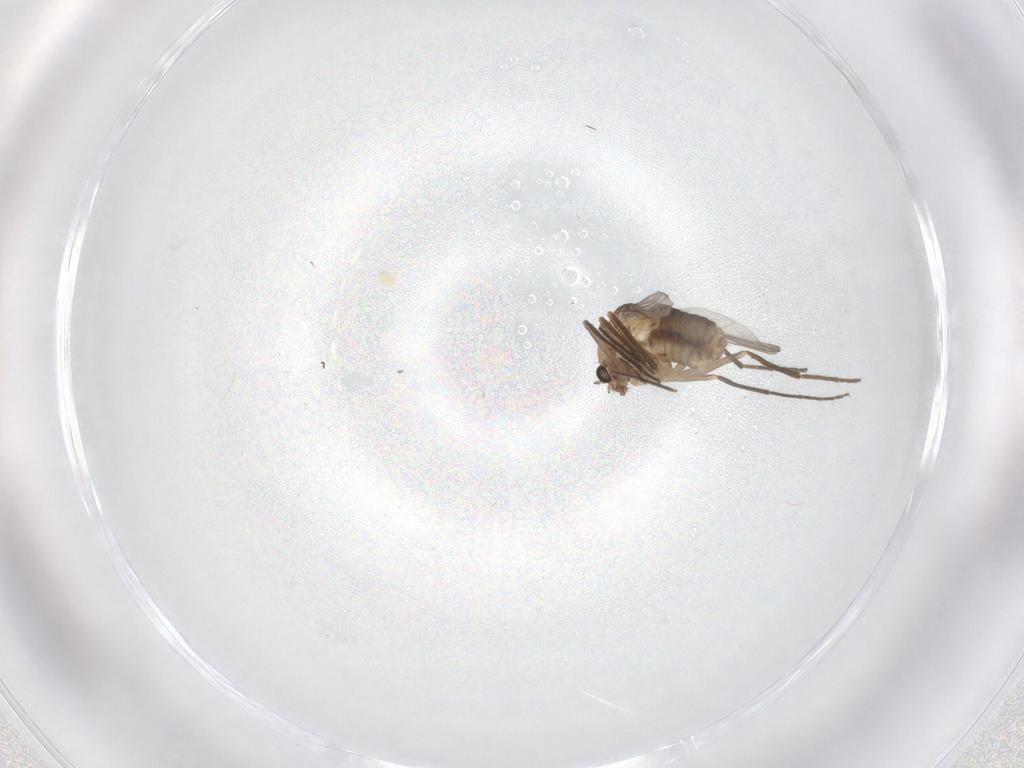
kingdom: Animalia
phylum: Arthropoda
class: Insecta
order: Diptera
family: Chironomidae
